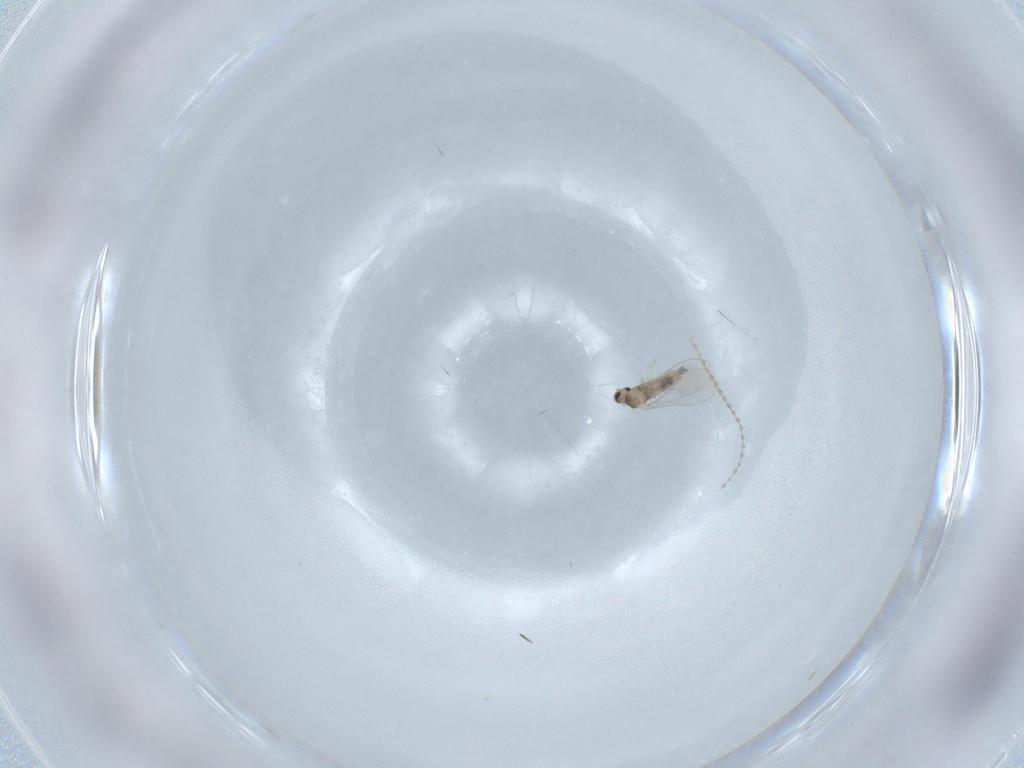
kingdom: Animalia
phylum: Arthropoda
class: Insecta
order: Diptera
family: Cecidomyiidae
